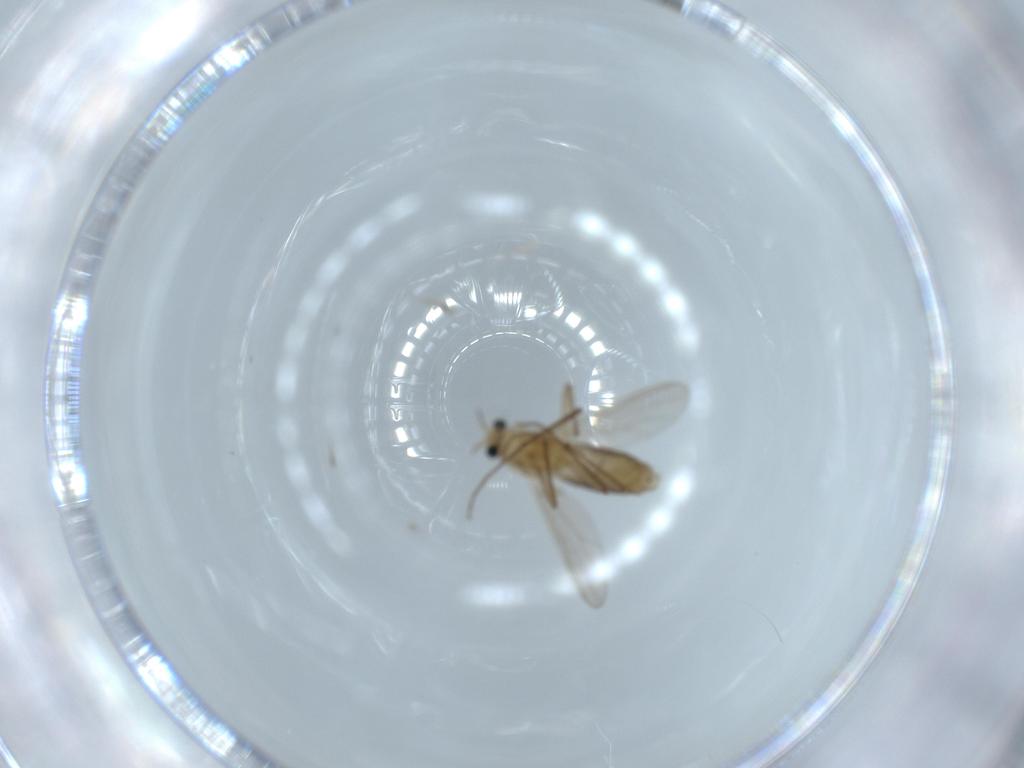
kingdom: Animalia
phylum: Arthropoda
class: Insecta
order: Diptera
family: Chironomidae
